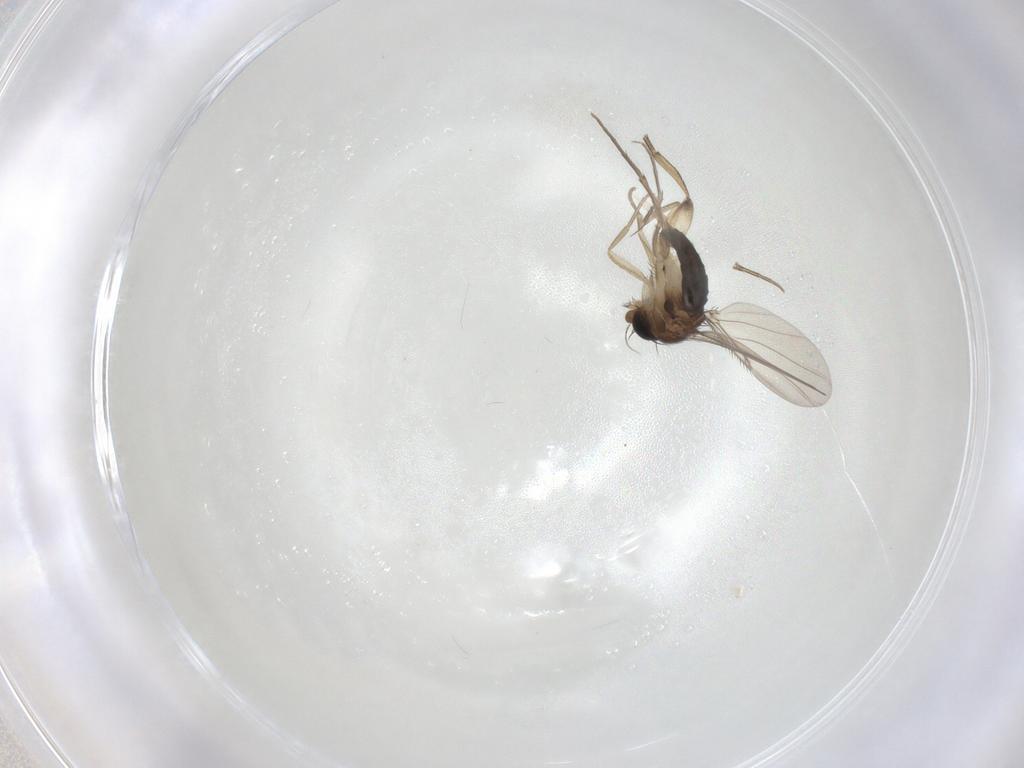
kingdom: Animalia
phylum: Arthropoda
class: Insecta
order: Diptera
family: Phoridae
